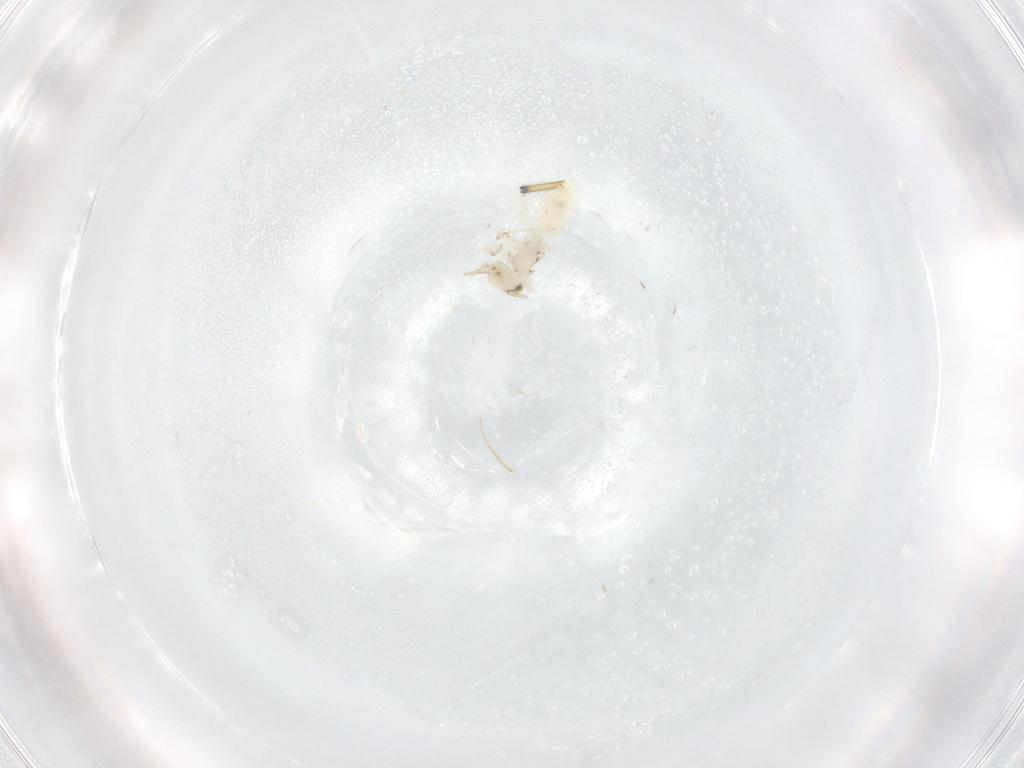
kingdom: Animalia
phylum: Arthropoda
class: Insecta
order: Psocodea
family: Lepidopsocidae
